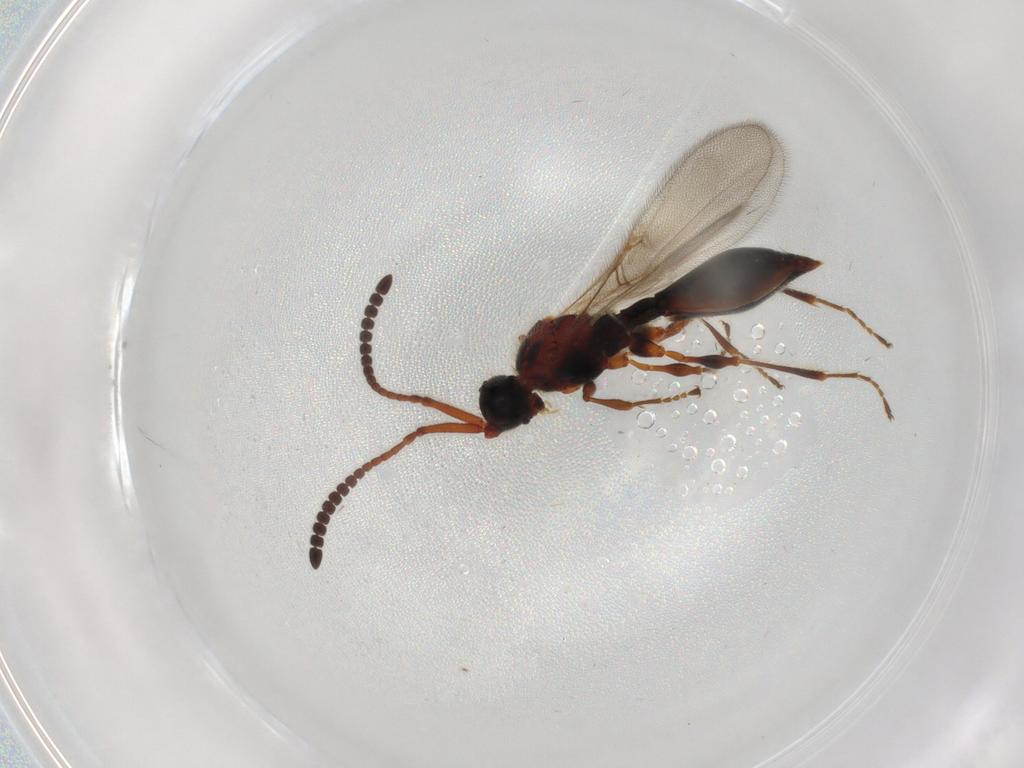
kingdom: Animalia
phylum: Arthropoda
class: Insecta
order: Hymenoptera
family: Diapriidae
